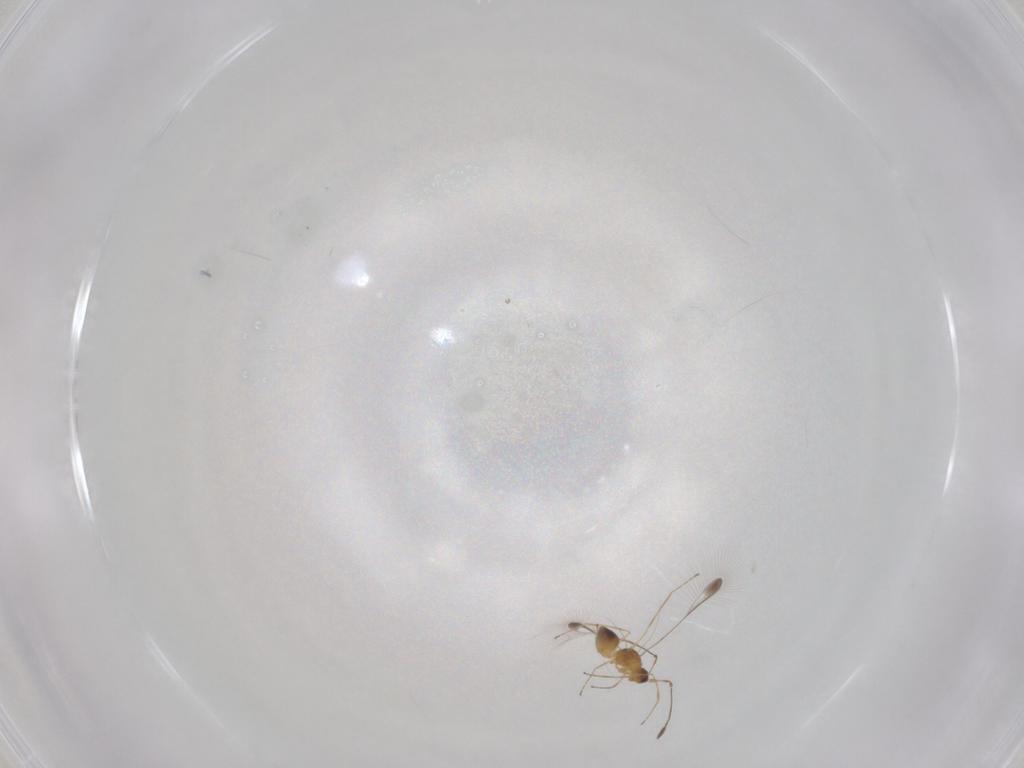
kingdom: Animalia
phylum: Arthropoda
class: Insecta
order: Hymenoptera
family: Mymaridae
